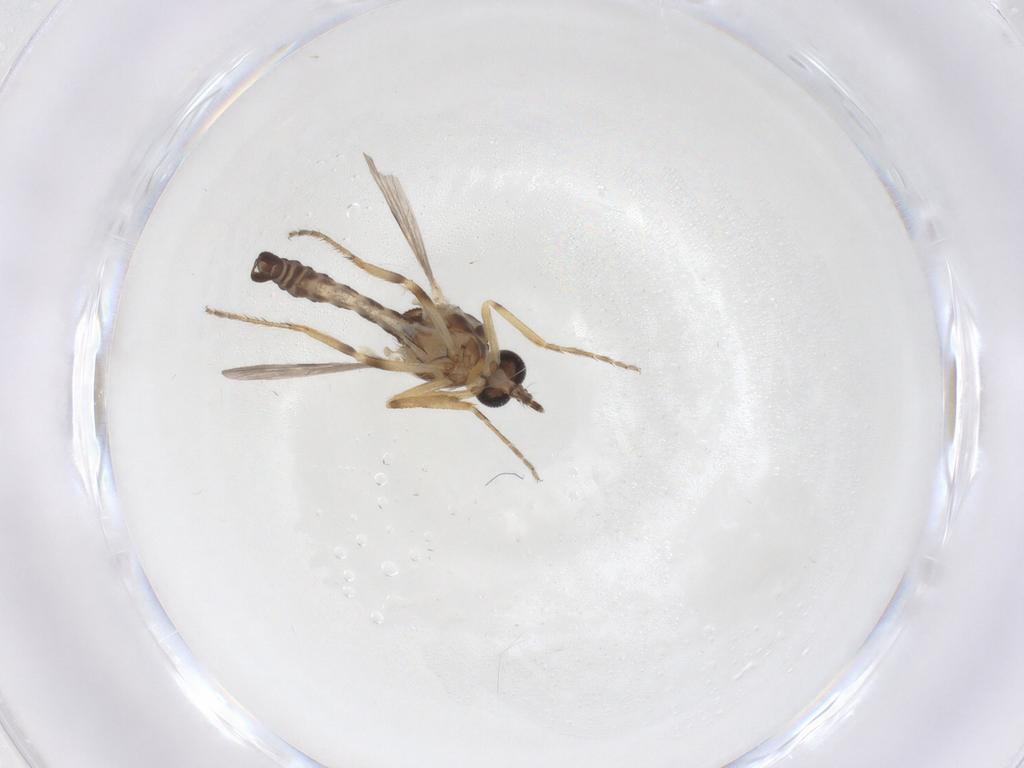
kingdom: Animalia
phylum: Arthropoda
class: Insecta
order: Diptera
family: Ceratopogonidae
